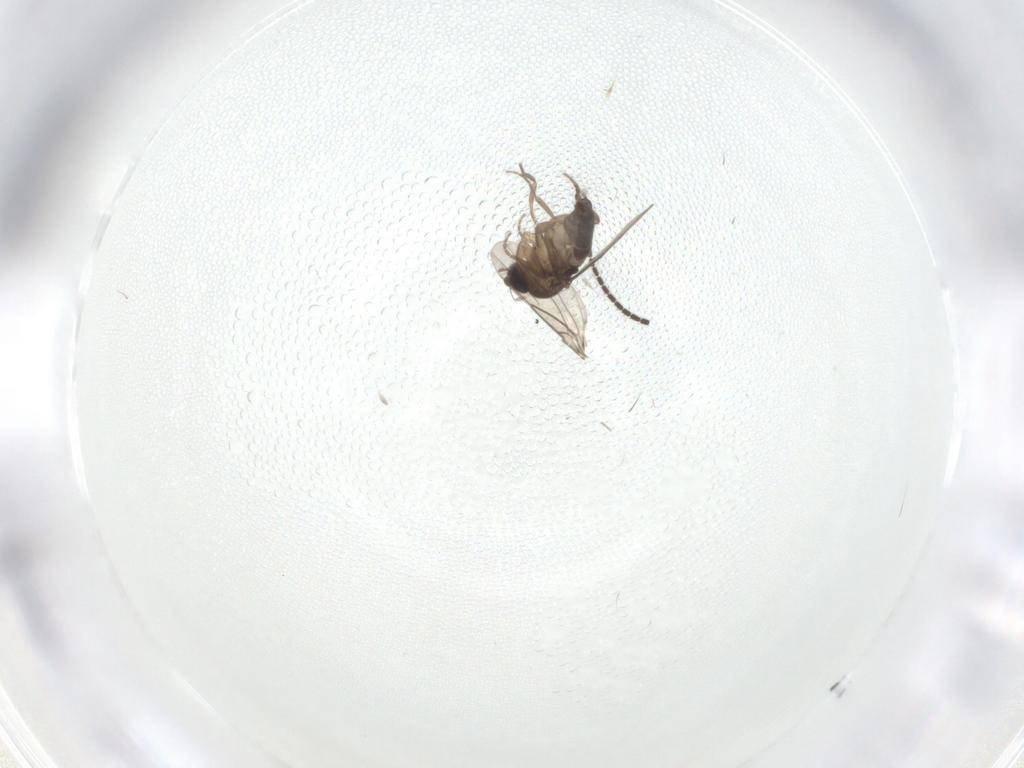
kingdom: Animalia
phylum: Arthropoda
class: Insecta
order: Diptera
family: Phoridae
